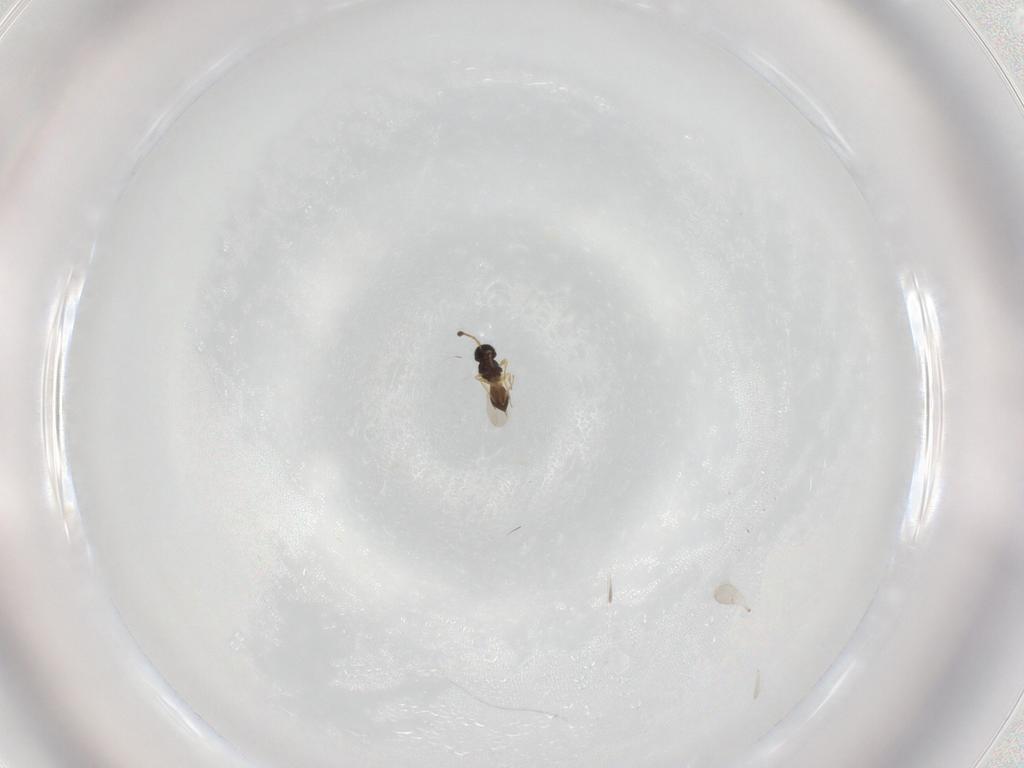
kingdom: Animalia
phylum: Arthropoda
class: Insecta
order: Hymenoptera
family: Scelionidae
